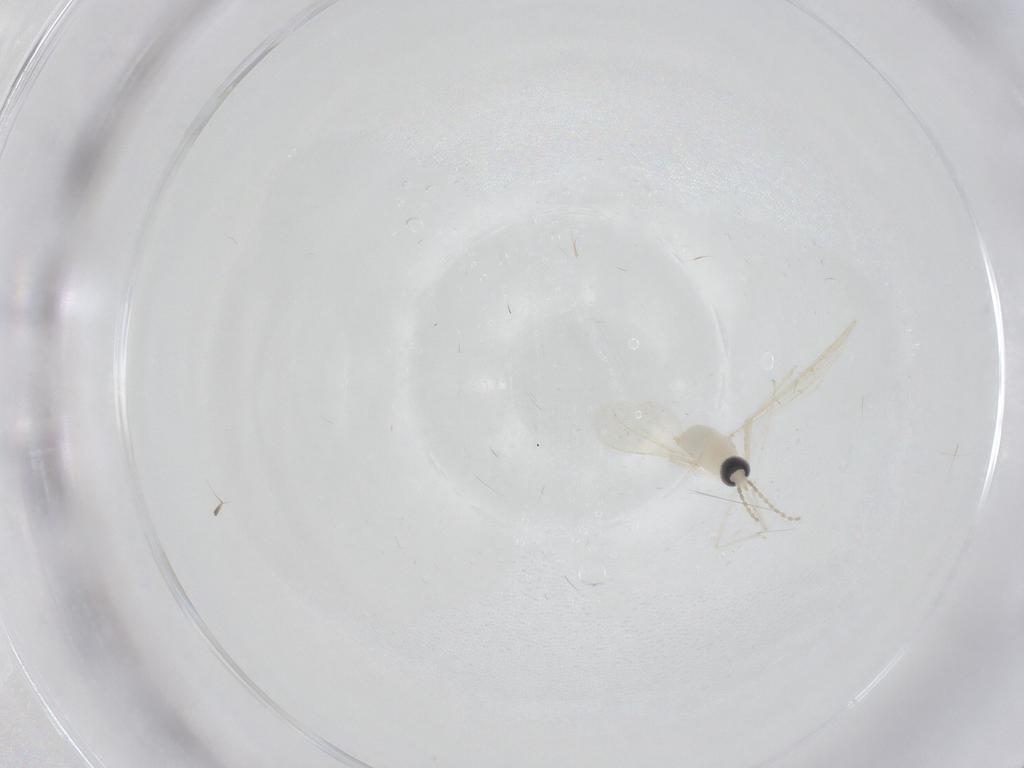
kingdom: Animalia
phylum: Arthropoda
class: Insecta
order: Diptera
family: Cecidomyiidae
